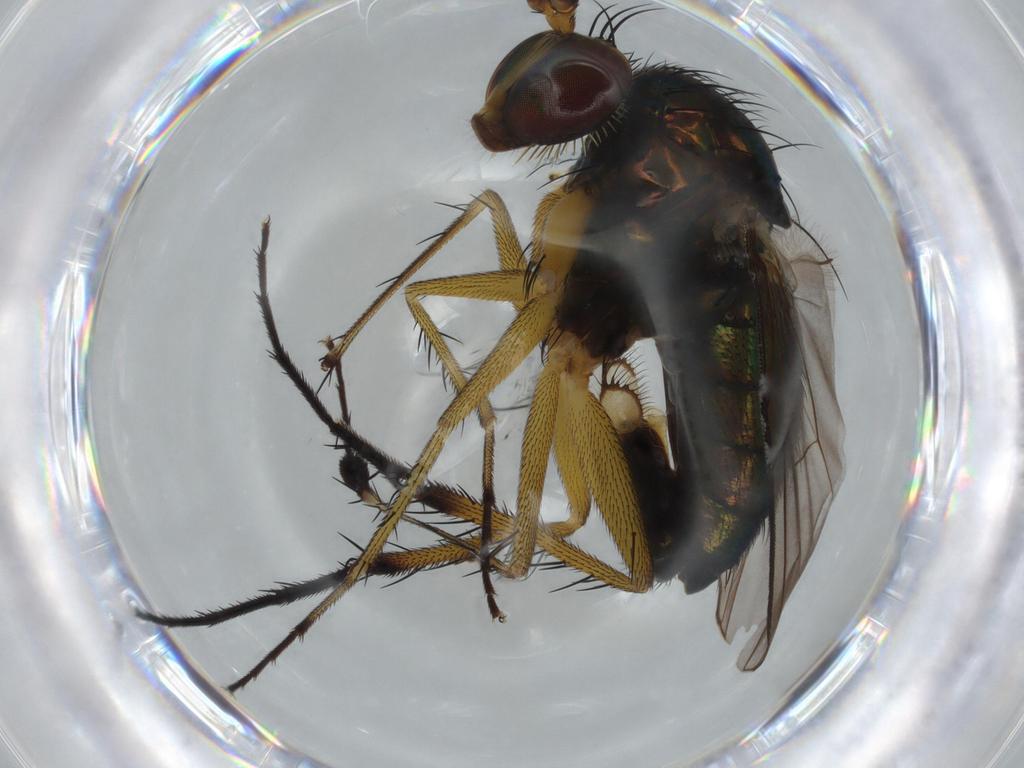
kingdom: Animalia
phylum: Arthropoda
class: Insecta
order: Diptera
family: Dolichopodidae
